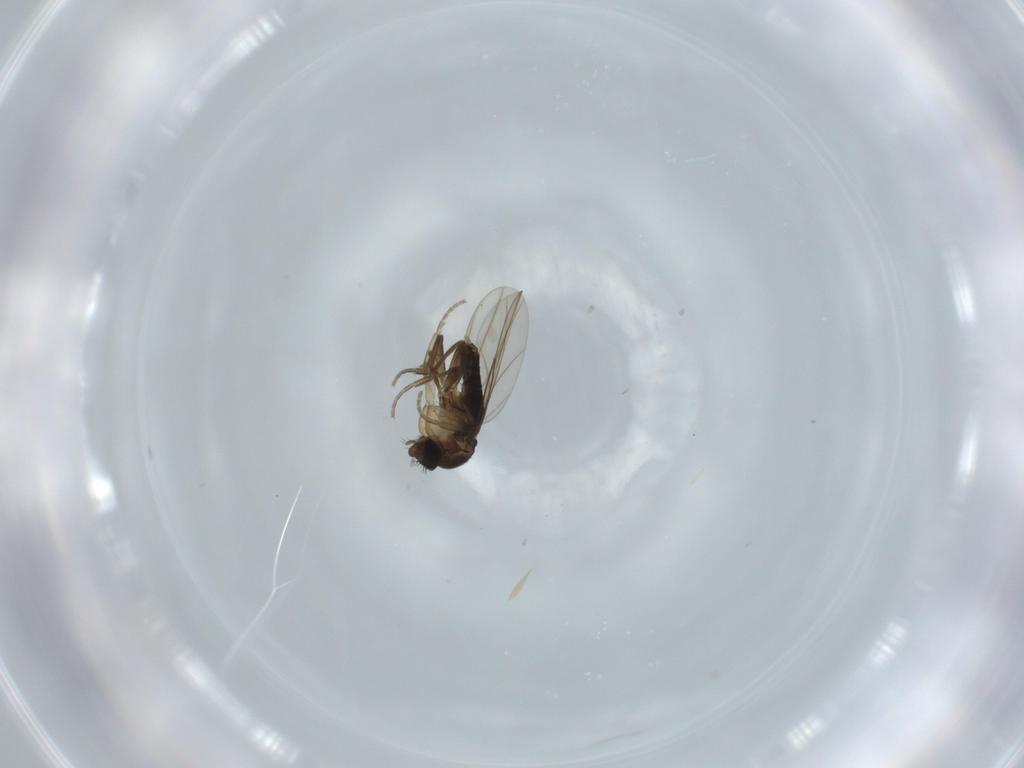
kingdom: Animalia
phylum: Arthropoda
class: Insecta
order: Diptera
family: Phoridae
